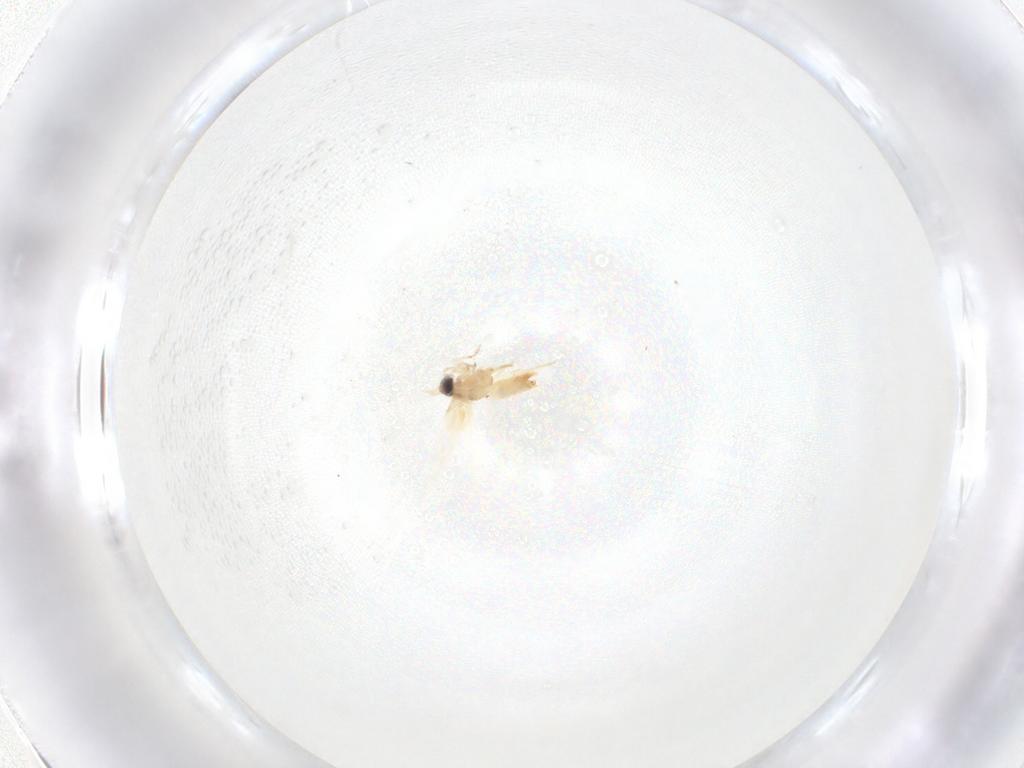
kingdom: Animalia
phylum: Arthropoda
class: Insecta
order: Lepidoptera
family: Crambidae
